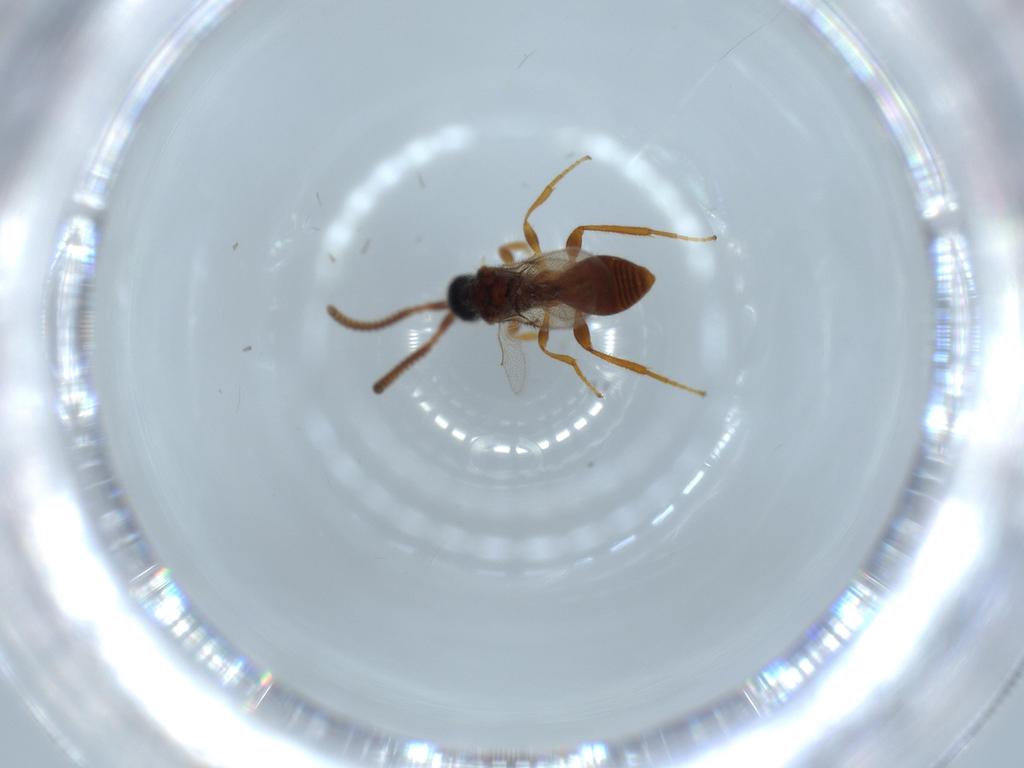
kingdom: Animalia
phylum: Arthropoda
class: Insecta
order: Hymenoptera
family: Diapriidae
